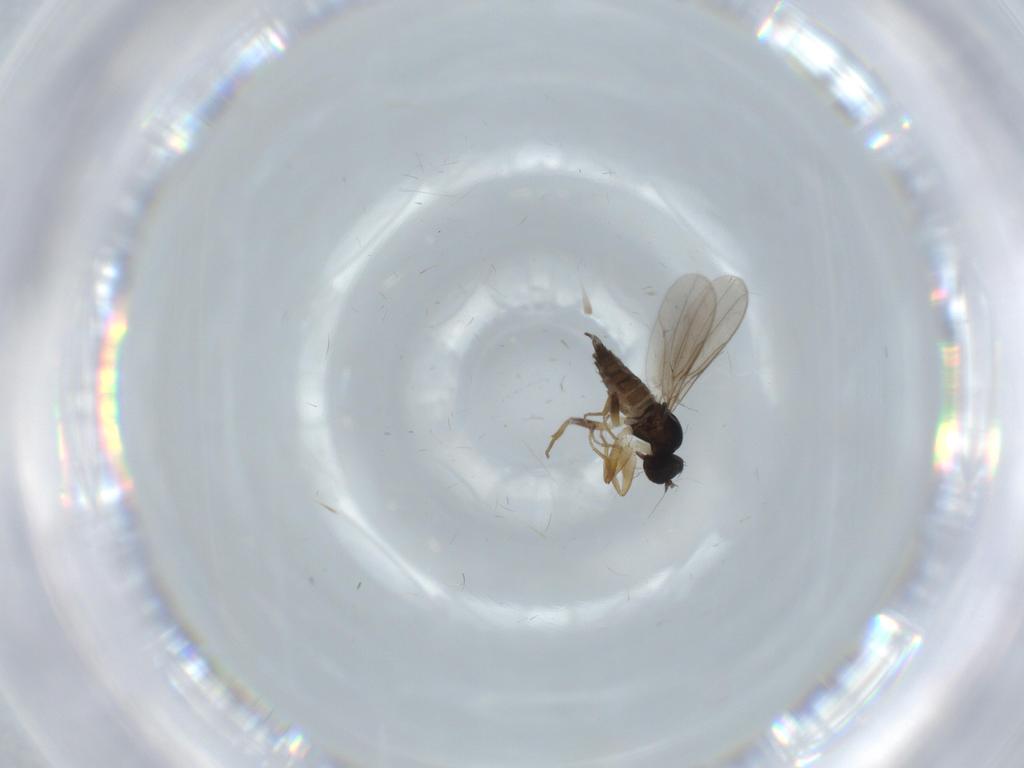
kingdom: Animalia
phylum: Arthropoda
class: Insecta
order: Diptera
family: Hybotidae
